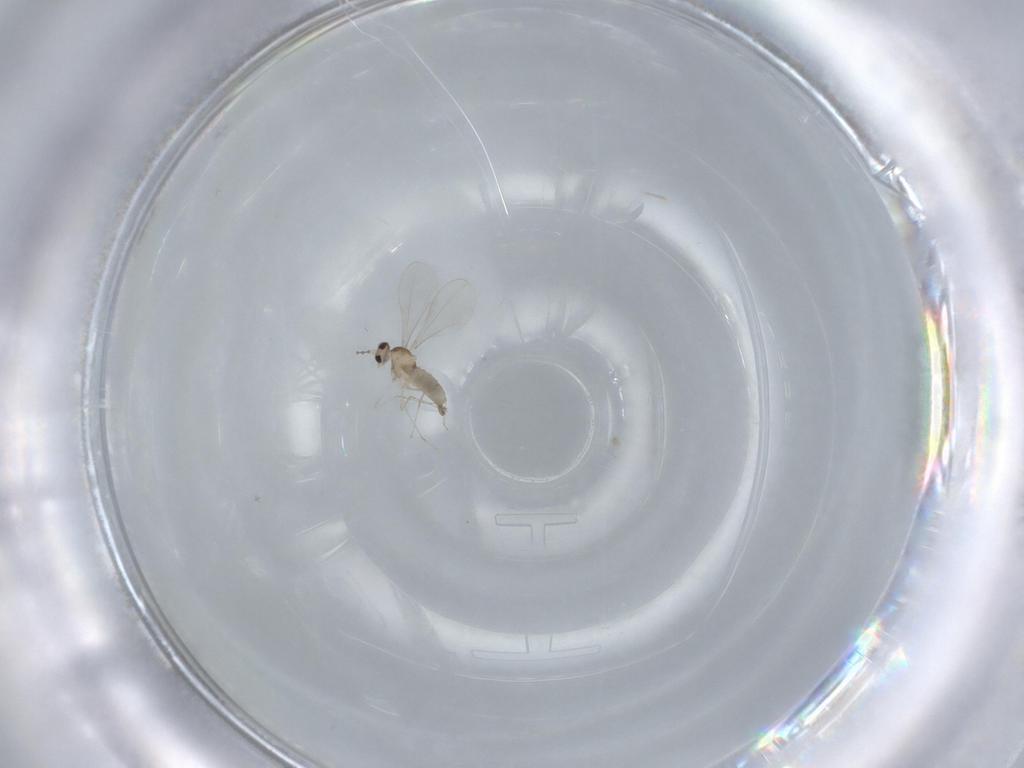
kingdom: Animalia
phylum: Arthropoda
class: Insecta
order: Diptera
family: Cecidomyiidae
